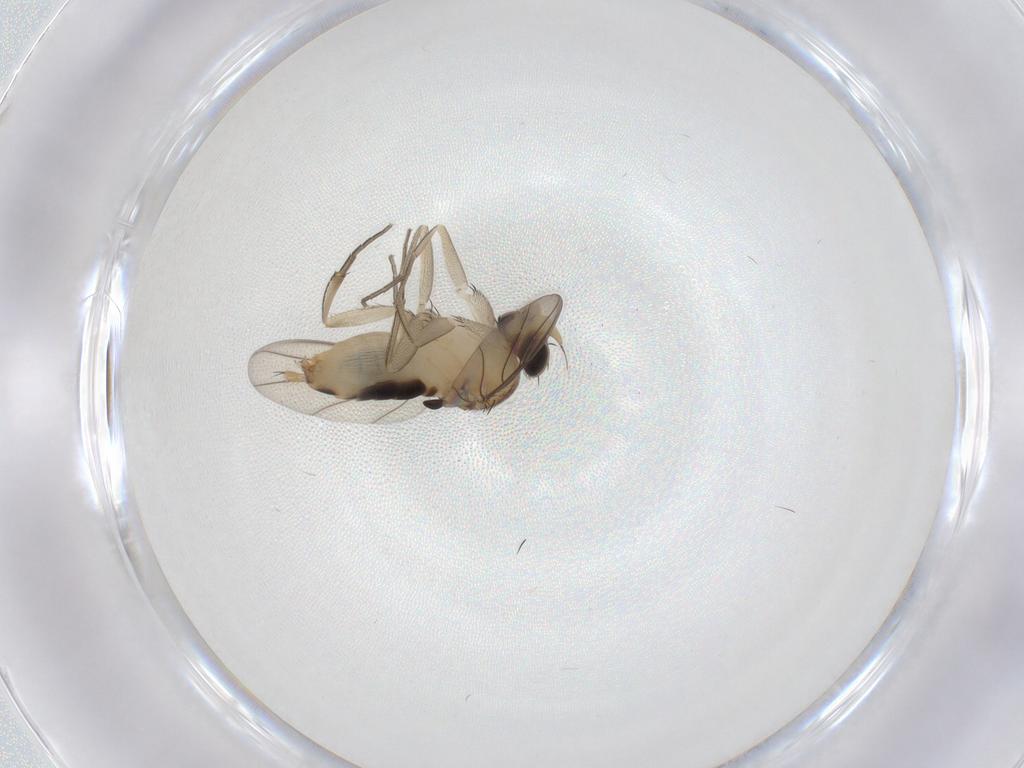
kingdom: Animalia
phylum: Arthropoda
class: Insecta
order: Diptera
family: Phoridae
